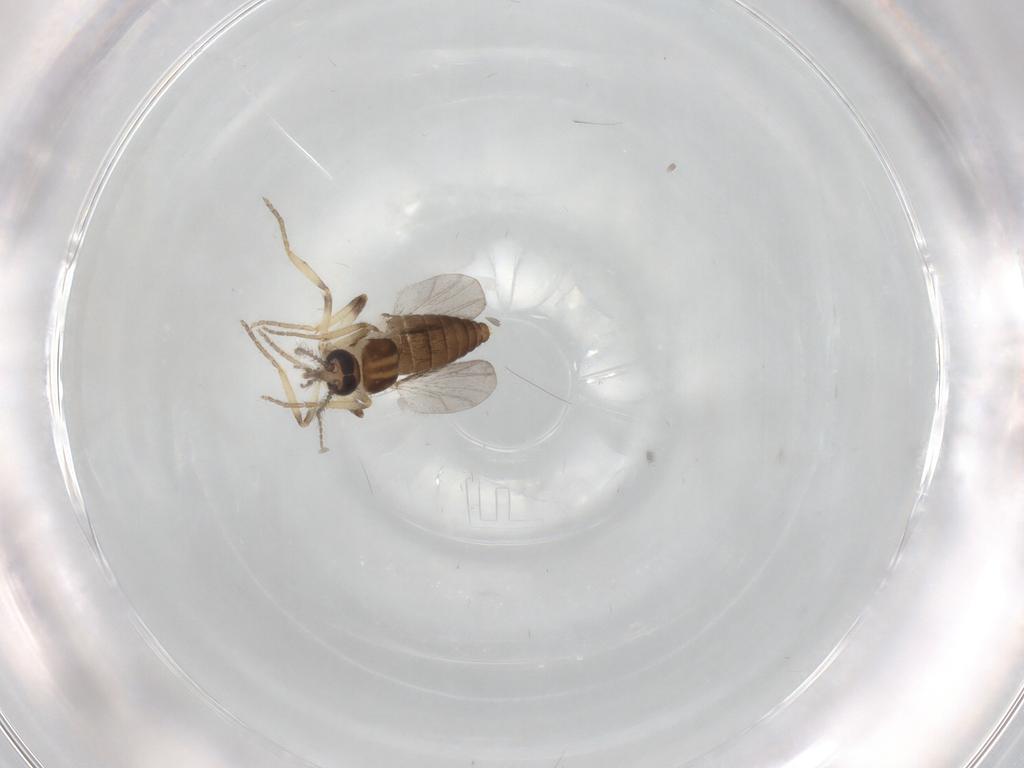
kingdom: Animalia
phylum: Arthropoda
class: Insecta
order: Diptera
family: Ceratopogonidae
